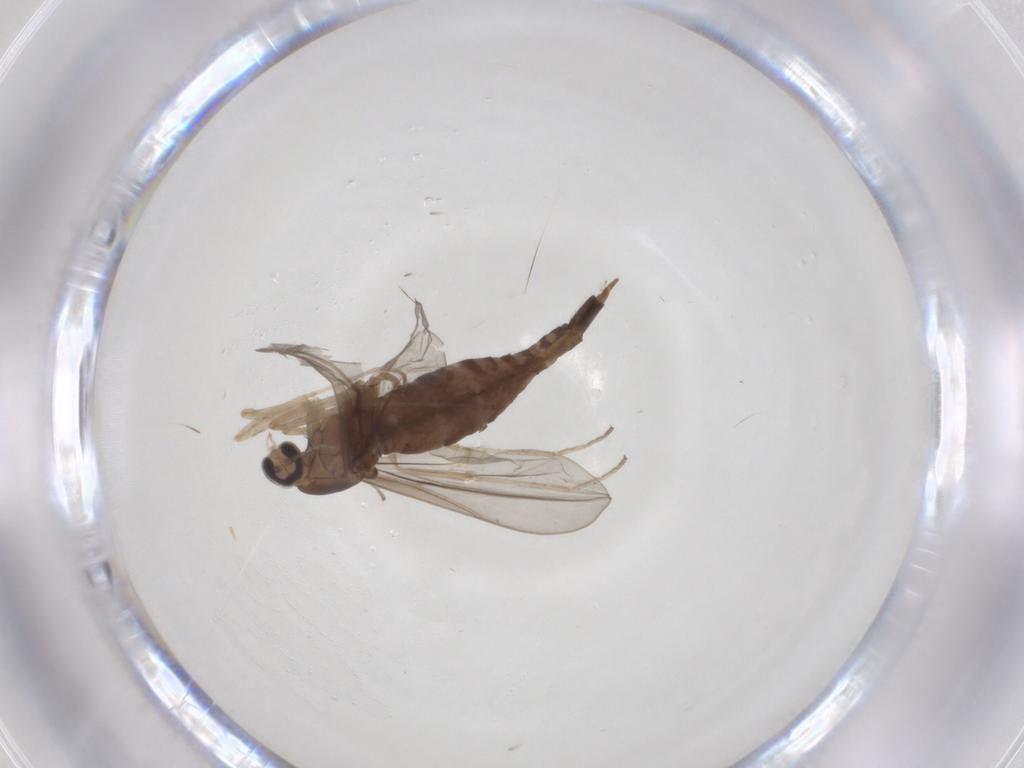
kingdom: Animalia
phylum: Arthropoda
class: Insecta
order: Diptera
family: Cecidomyiidae
